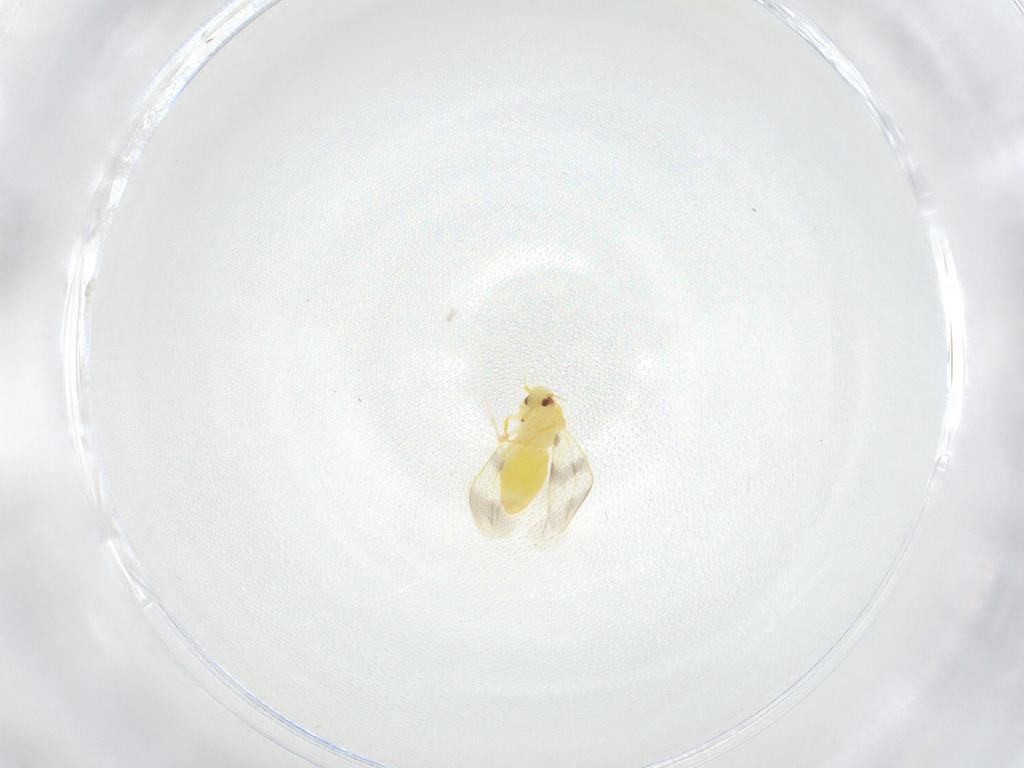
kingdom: Animalia
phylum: Arthropoda
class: Insecta
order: Hemiptera
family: Aleyrodidae
